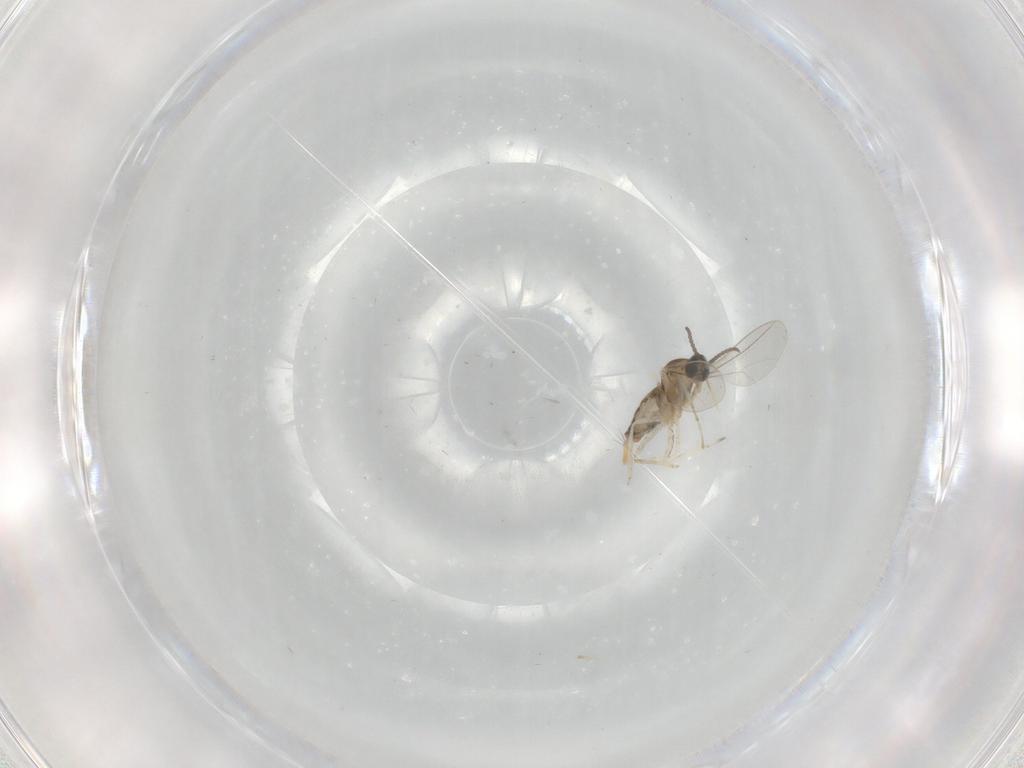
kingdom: Animalia
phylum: Arthropoda
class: Insecta
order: Diptera
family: Cecidomyiidae
